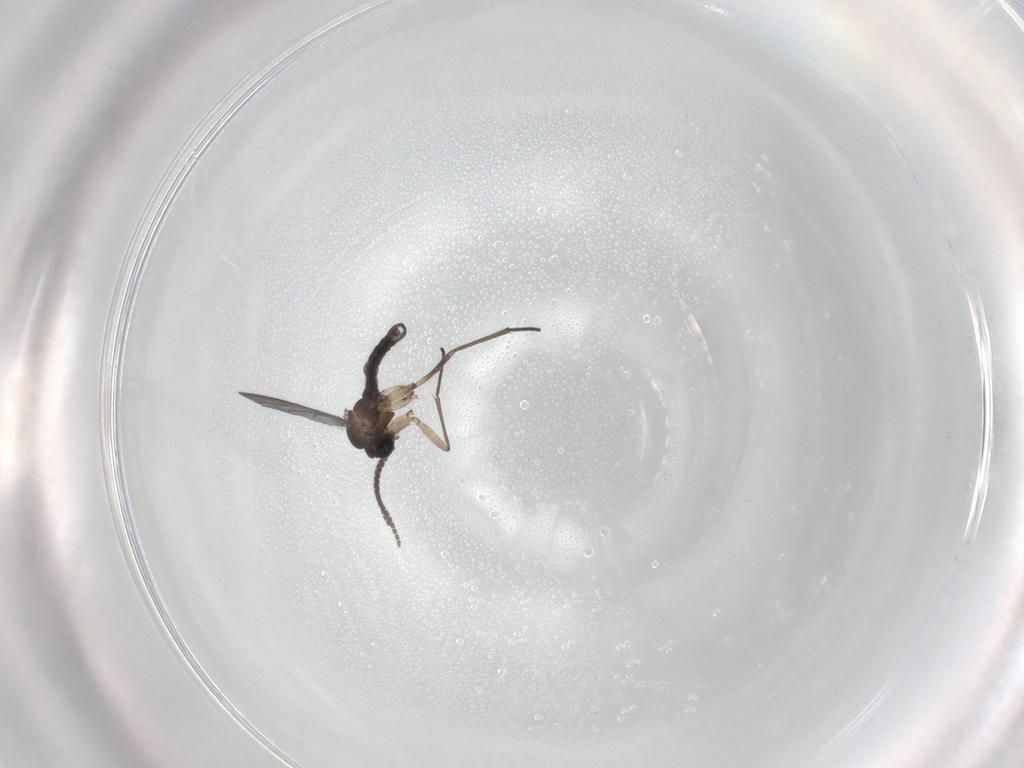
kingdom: Animalia
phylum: Arthropoda
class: Insecta
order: Diptera
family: Sciaridae
